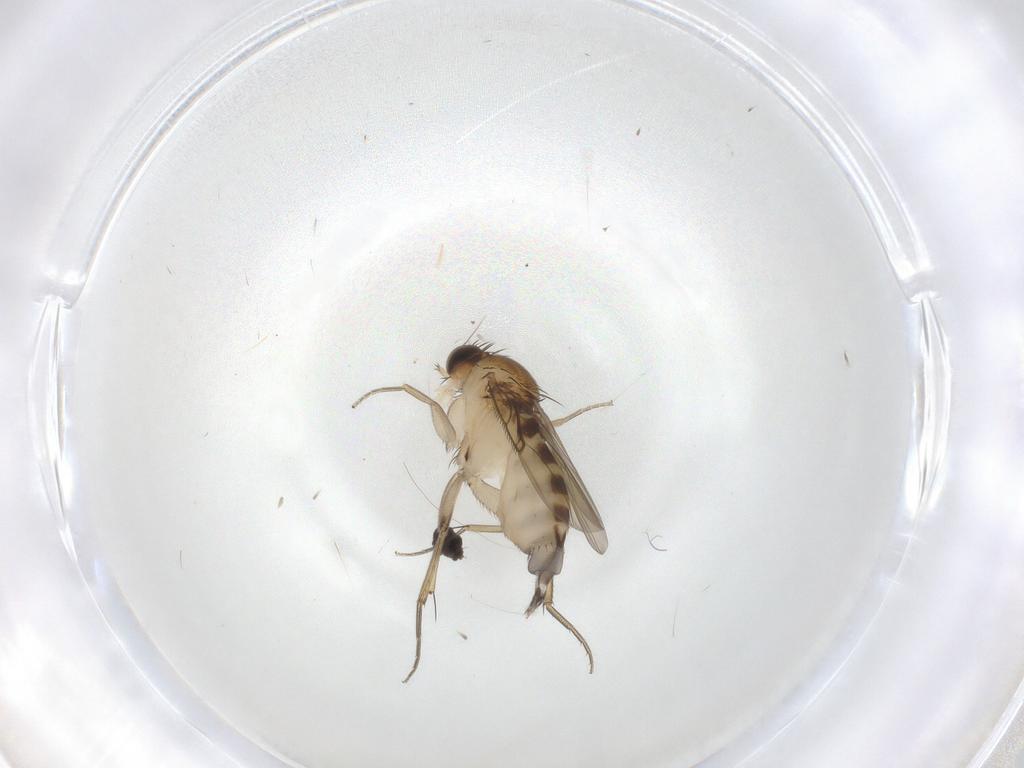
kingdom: Animalia
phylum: Arthropoda
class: Insecta
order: Diptera
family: Phoridae
